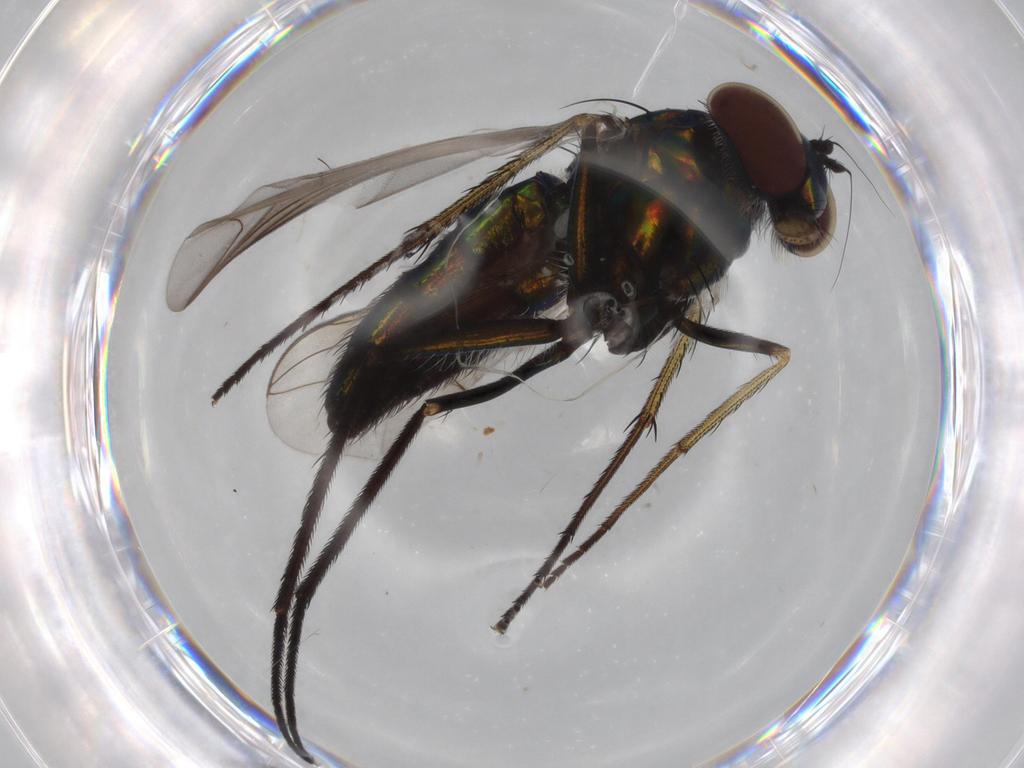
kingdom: Animalia
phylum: Arthropoda
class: Insecta
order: Diptera
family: Dolichopodidae
